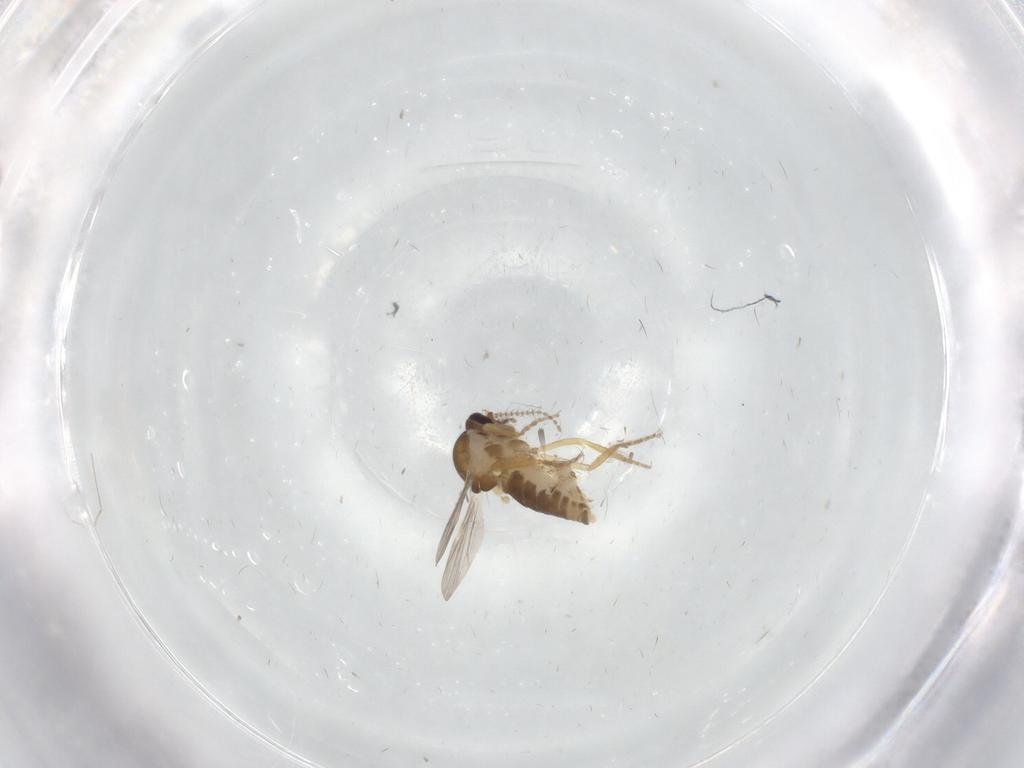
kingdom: Animalia
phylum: Arthropoda
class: Insecta
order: Diptera
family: Ceratopogonidae
